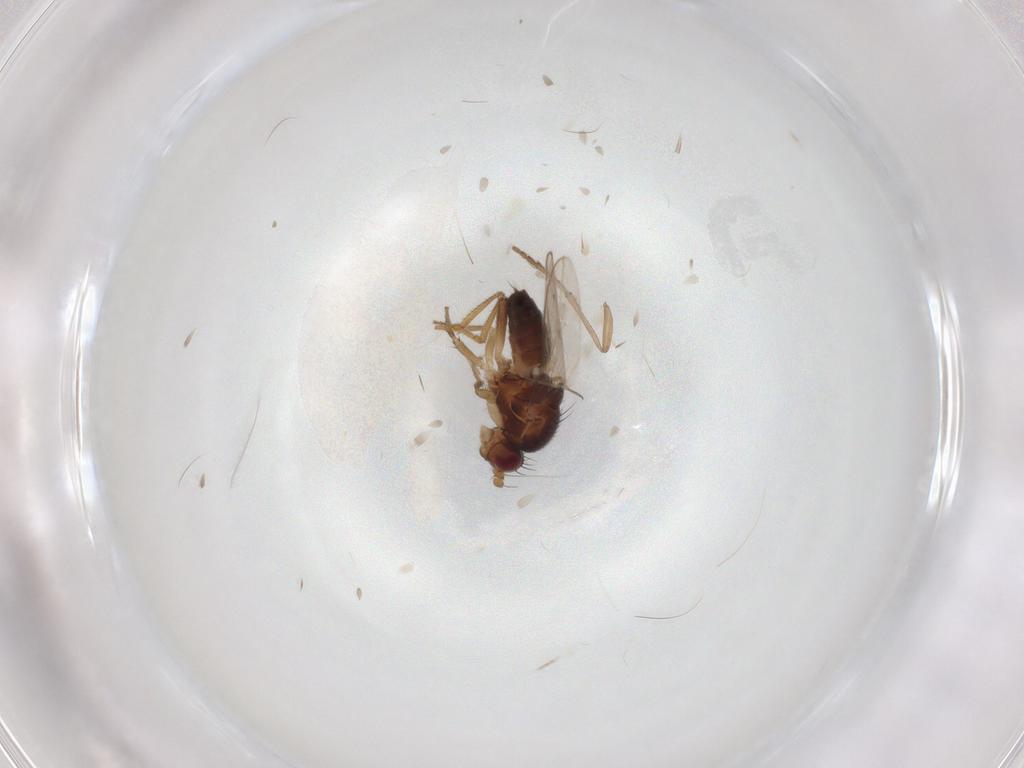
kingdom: Animalia
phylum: Arthropoda
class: Insecta
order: Diptera
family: Psychodidae
